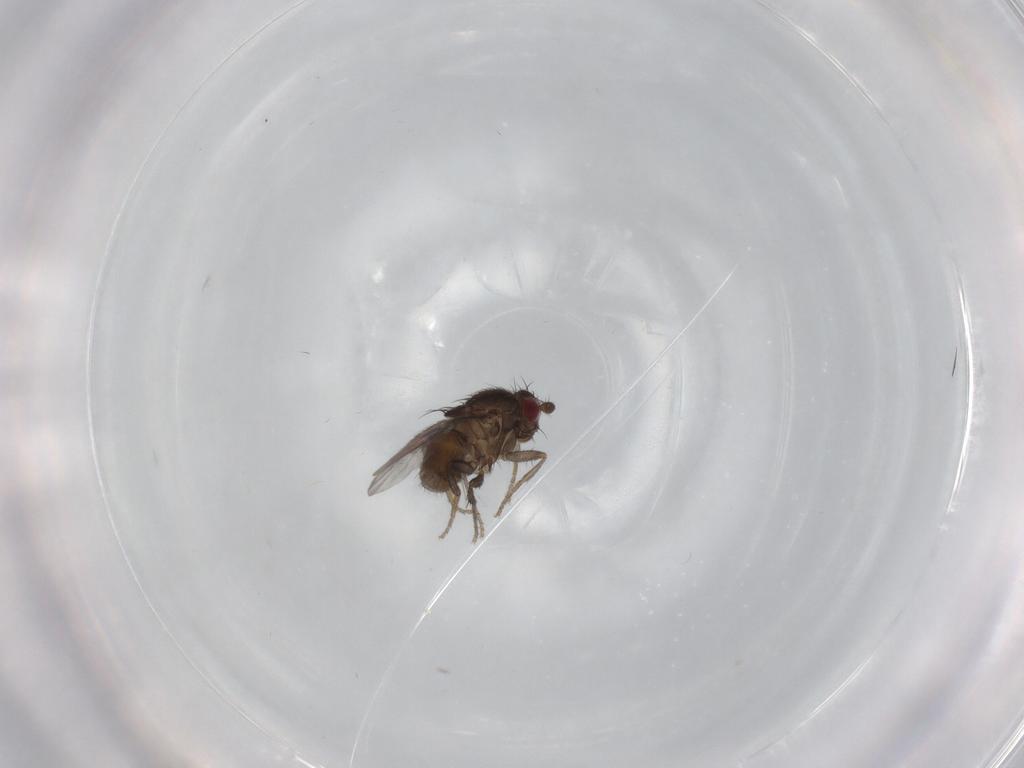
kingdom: Animalia
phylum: Arthropoda
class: Insecta
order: Diptera
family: Sphaeroceridae
